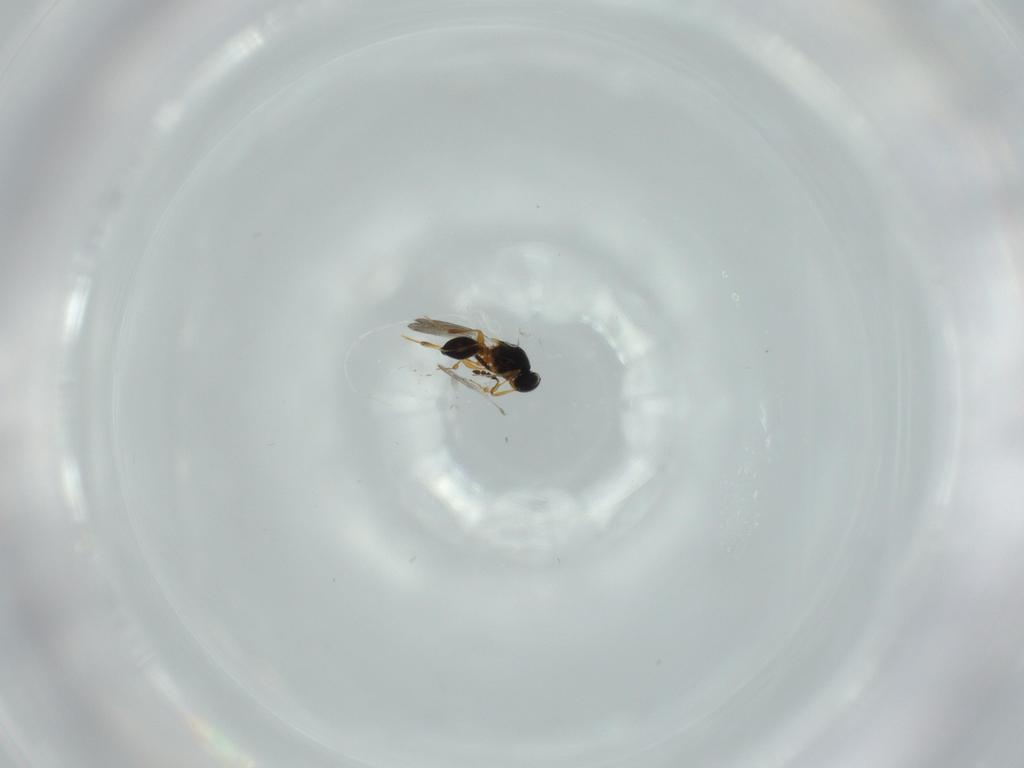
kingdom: Animalia
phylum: Arthropoda
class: Insecta
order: Hymenoptera
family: Platygastridae
